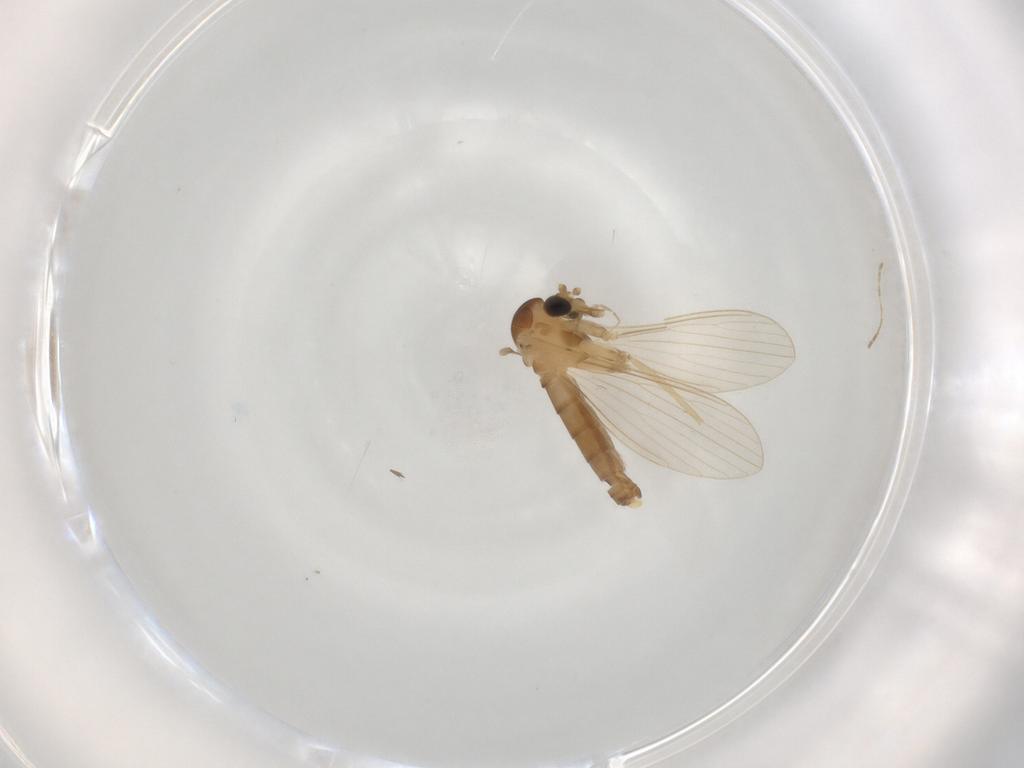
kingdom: Animalia
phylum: Arthropoda
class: Insecta
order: Diptera
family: Psychodidae
